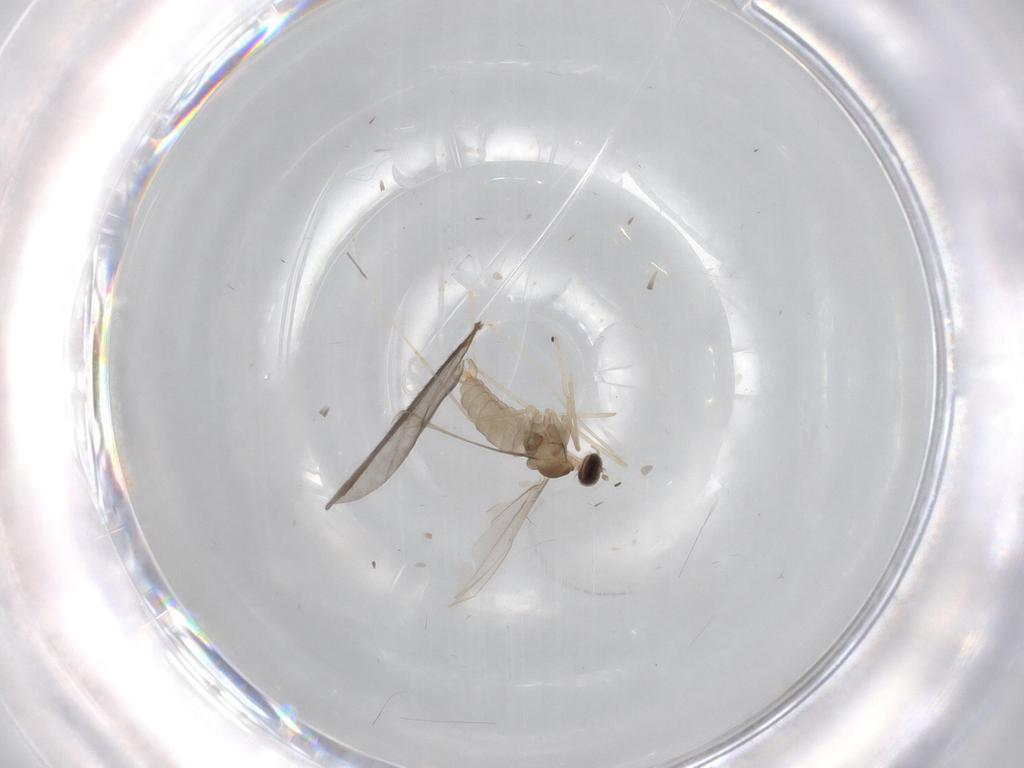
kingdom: Animalia
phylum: Arthropoda
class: Insecta
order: Diptera
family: Cecidomyiidae
